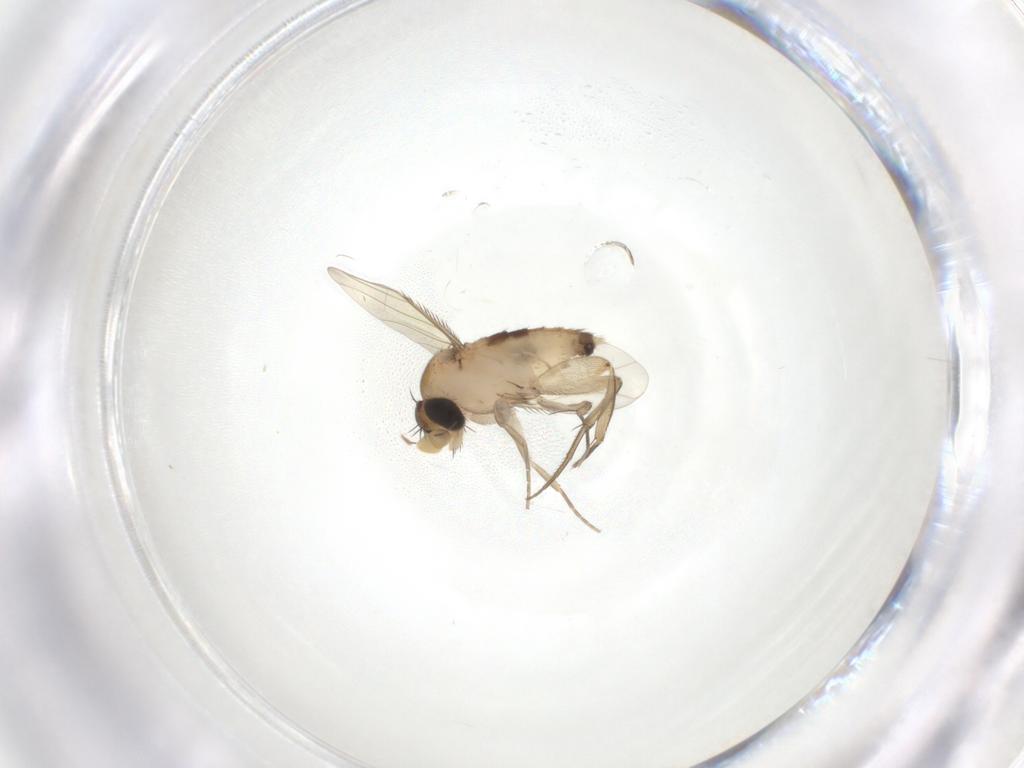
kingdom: Animalia
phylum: Arthropoda
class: Insecta
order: Diptera
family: Phoridae
